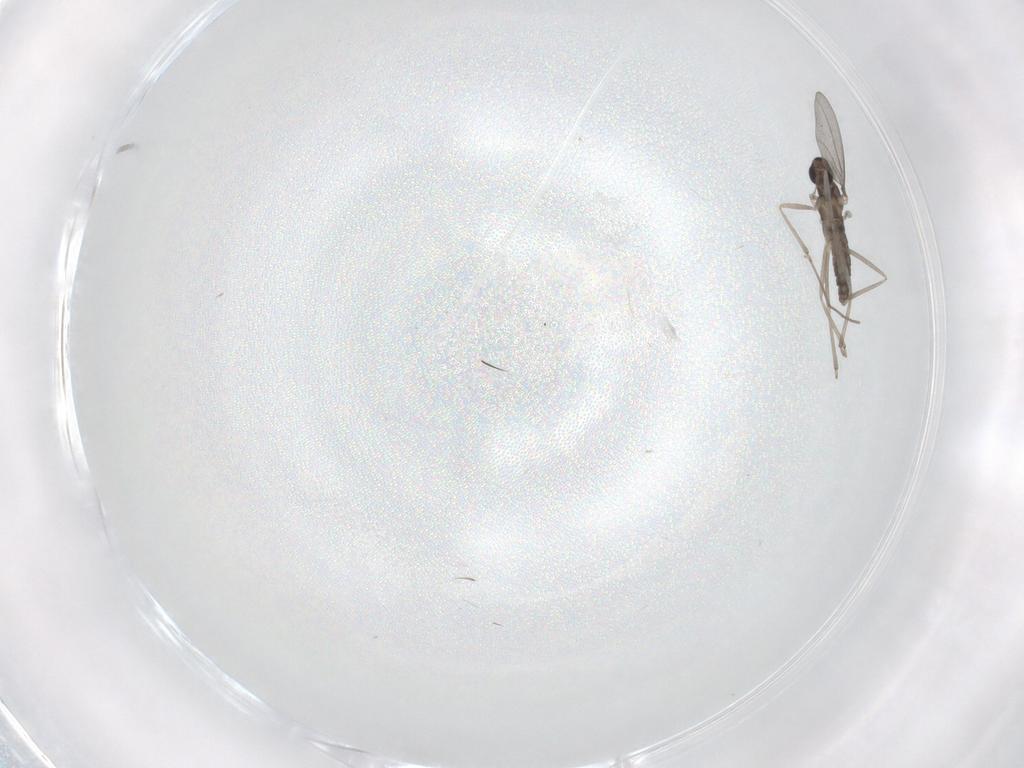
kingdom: Animalia
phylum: Arthropoda
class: Insecta
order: Diptera
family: Cecidomyiidae
